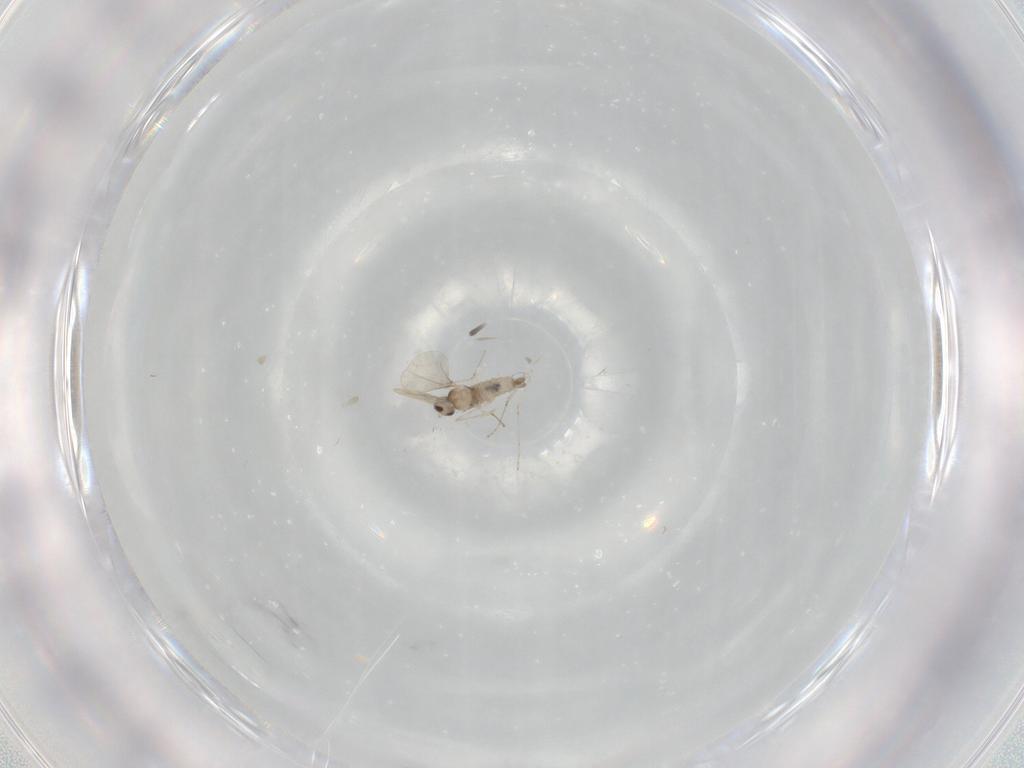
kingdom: Animalia
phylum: Arthropoda
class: Insecta
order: Diptera
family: Cecidomyiidae
